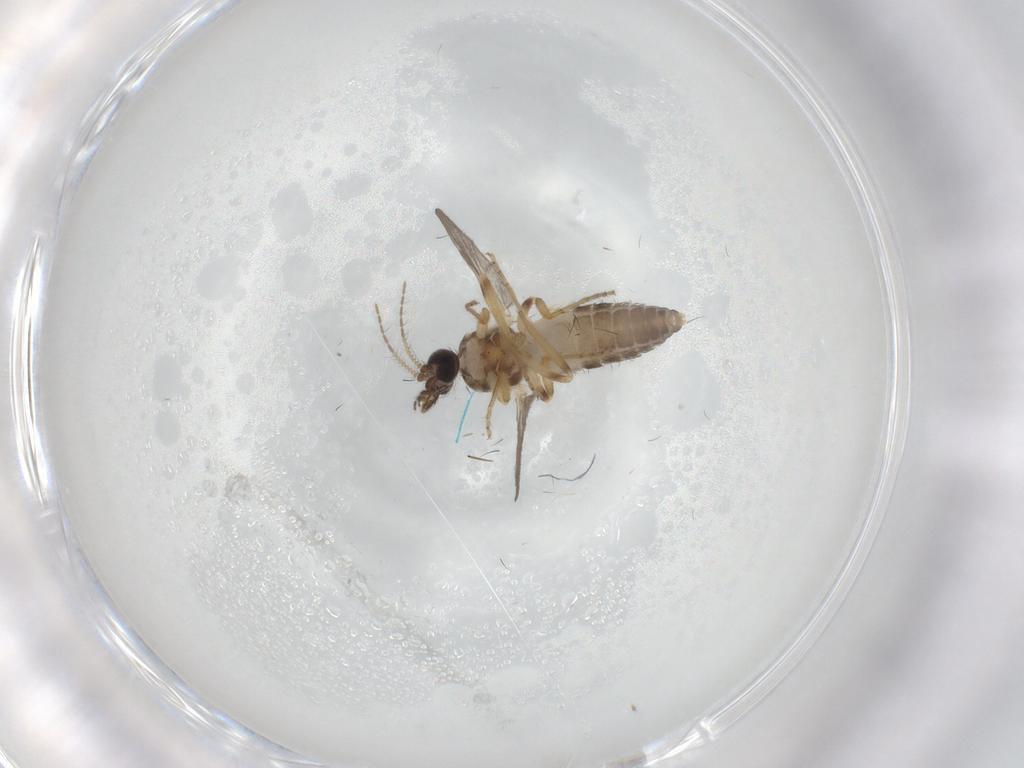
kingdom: Animalia
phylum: Arthropoda
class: Insecta
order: Diptera
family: Ceratopogonidae
